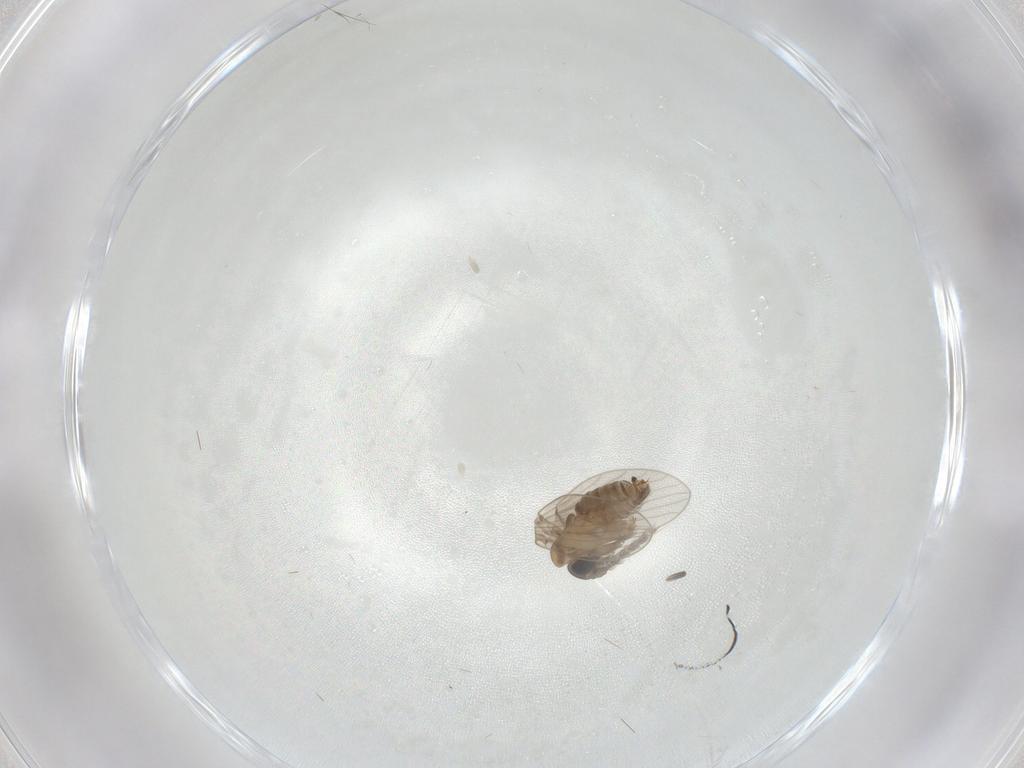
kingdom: Animalia
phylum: Arthropoda
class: Insecta
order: Diptera
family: Psychodidae
